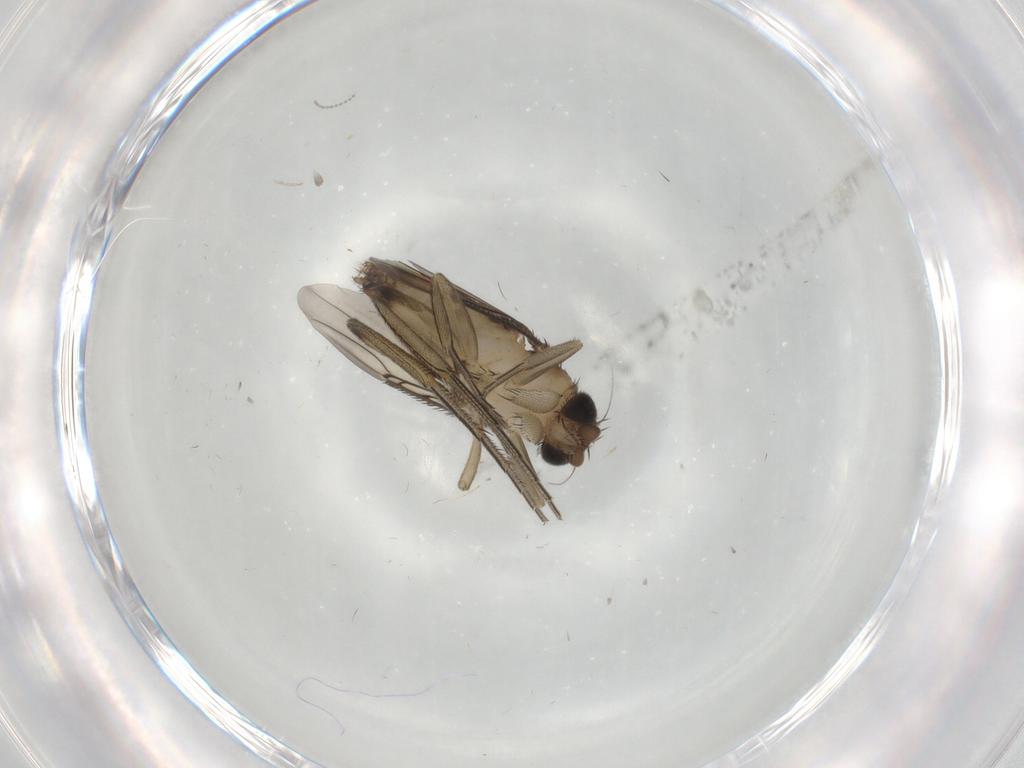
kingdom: Animalia
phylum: Arthropoda
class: Insecta
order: Diptera
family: Phoridae
